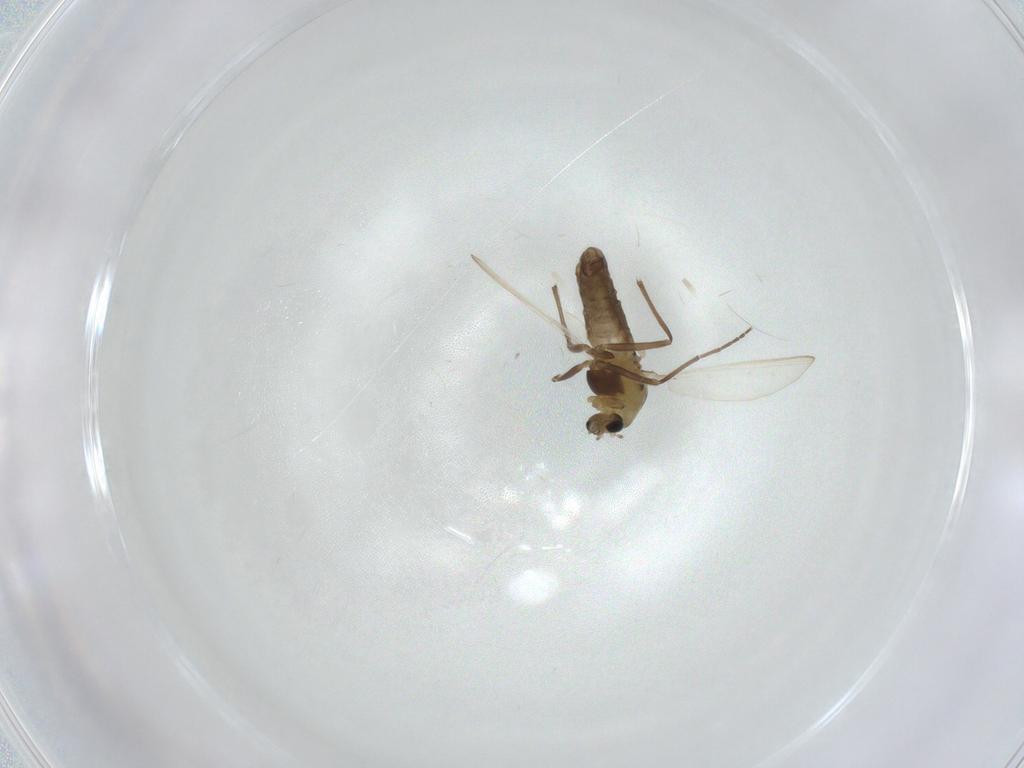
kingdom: Animalia
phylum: Arthropoda
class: Insecta
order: Diptera
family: Chironomidae
